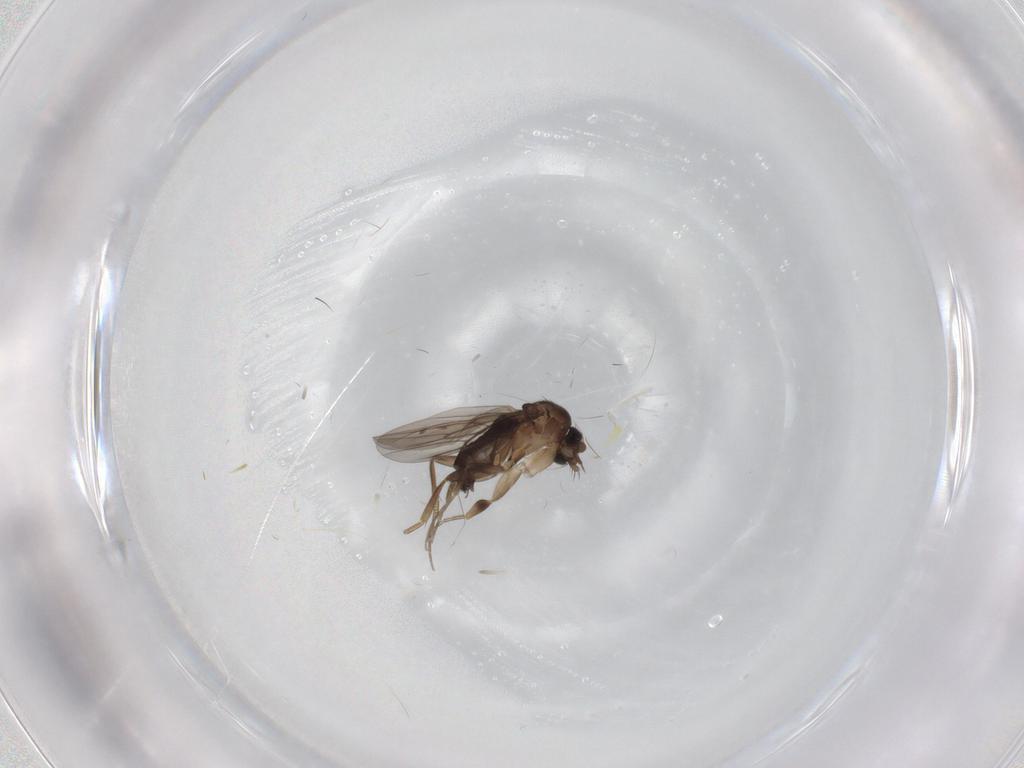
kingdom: Animalia
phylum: Arthropoda
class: Insecta
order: Diptera
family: Phoridae
